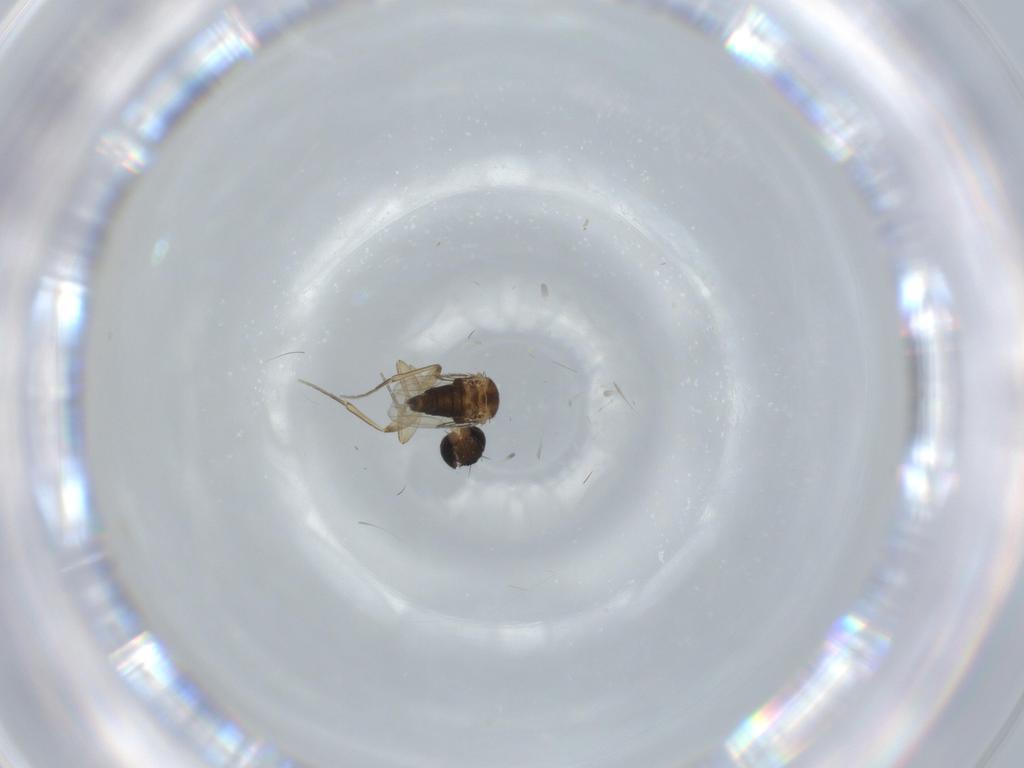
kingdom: Animalia
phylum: Arthropoda
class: Insecta
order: Diptera
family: Phoridae
